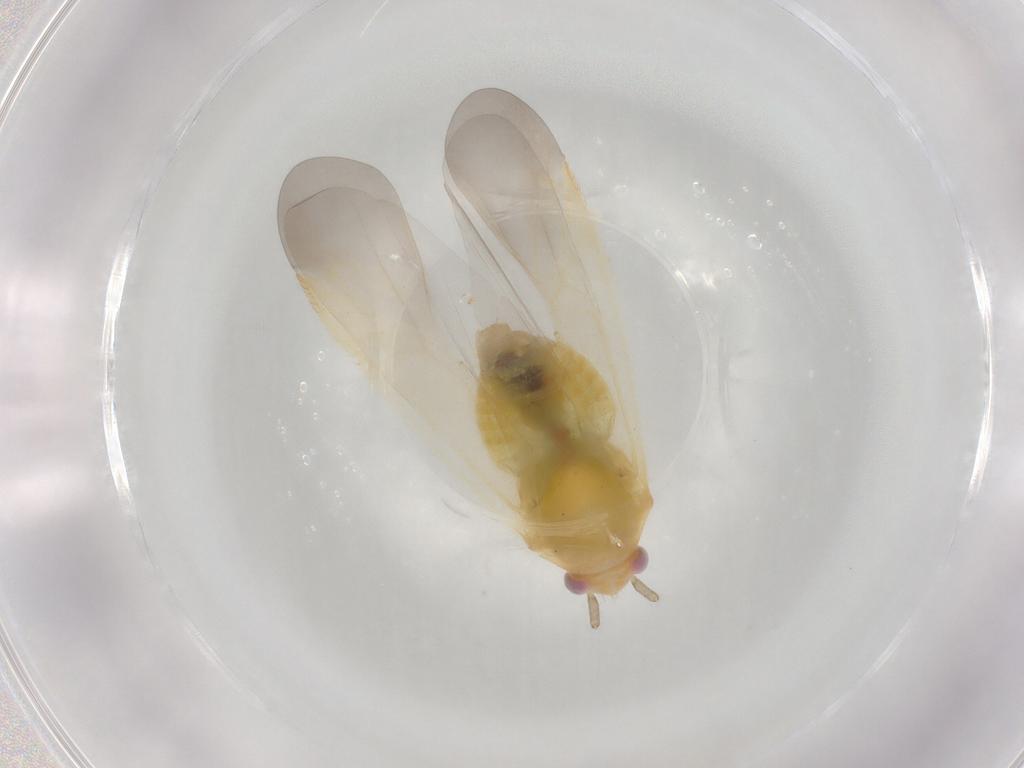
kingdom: Animalia
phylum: Arthropoda
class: Insecta
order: Hemiptera
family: Miridae
